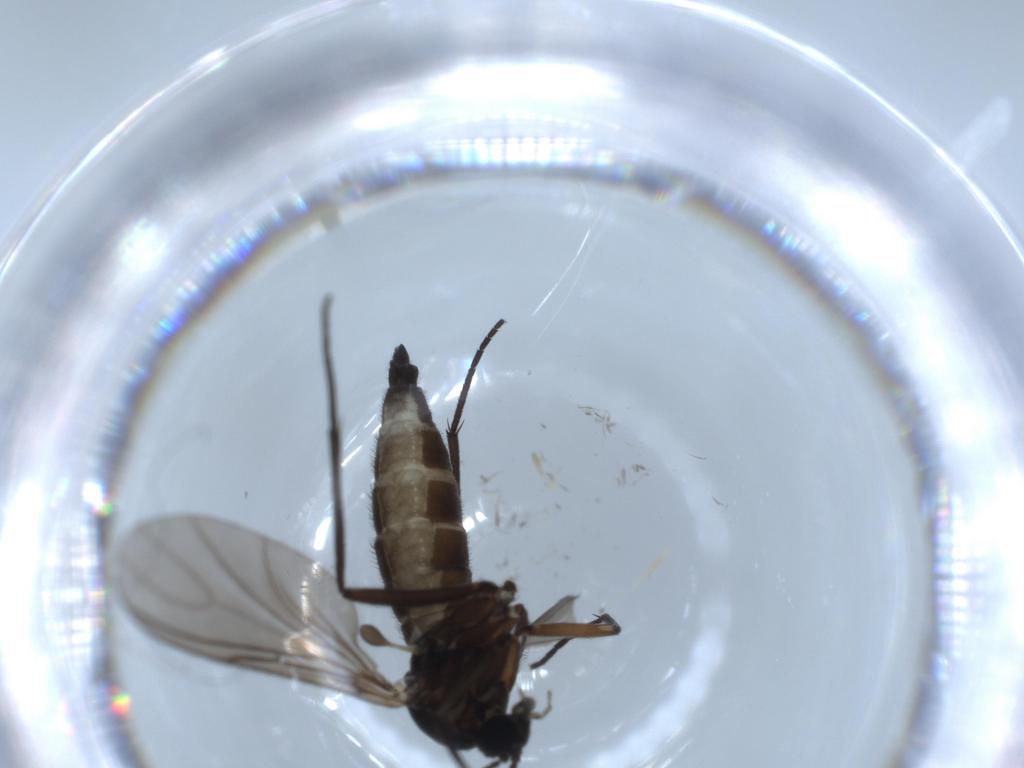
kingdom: Animalia
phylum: Arthropoda
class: Insecta
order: Diptera
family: Sciaridae
